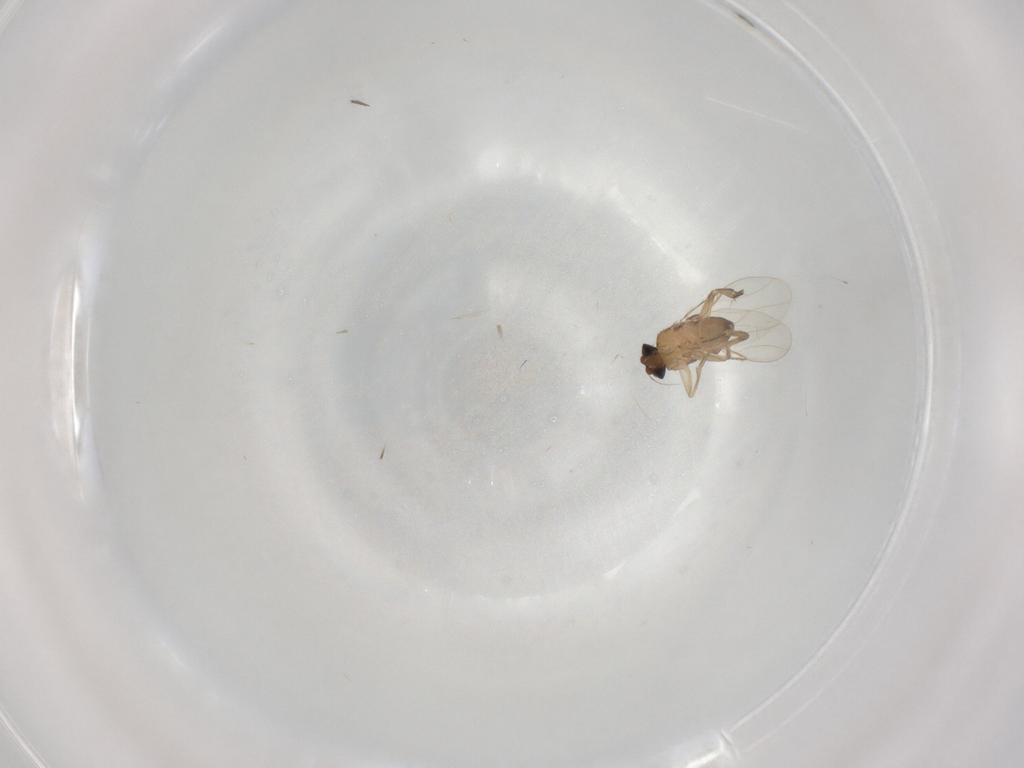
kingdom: Animalia
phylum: Arthropoda
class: Insecta
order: Diptera
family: Phoridae
